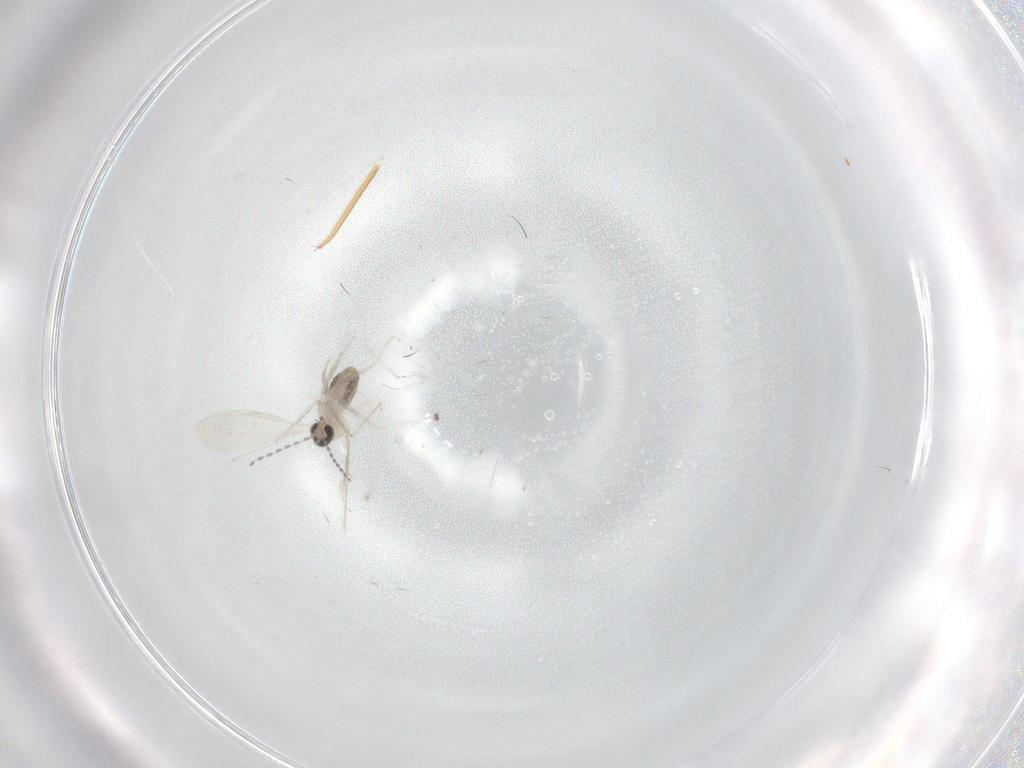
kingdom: Animalia
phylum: Arthropoda
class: Insecta
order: Diptera
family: Cecidomyiidae
